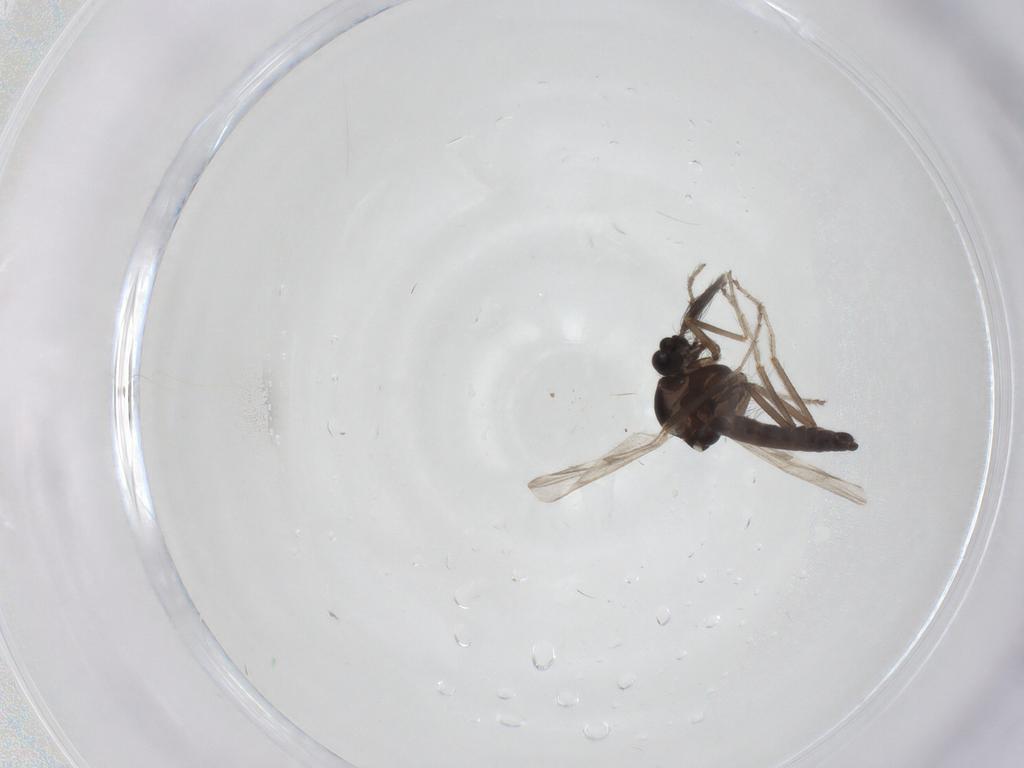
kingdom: Animalia
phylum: Arthropoda
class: Insecta
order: Diptera
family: Ceratopogonidae
